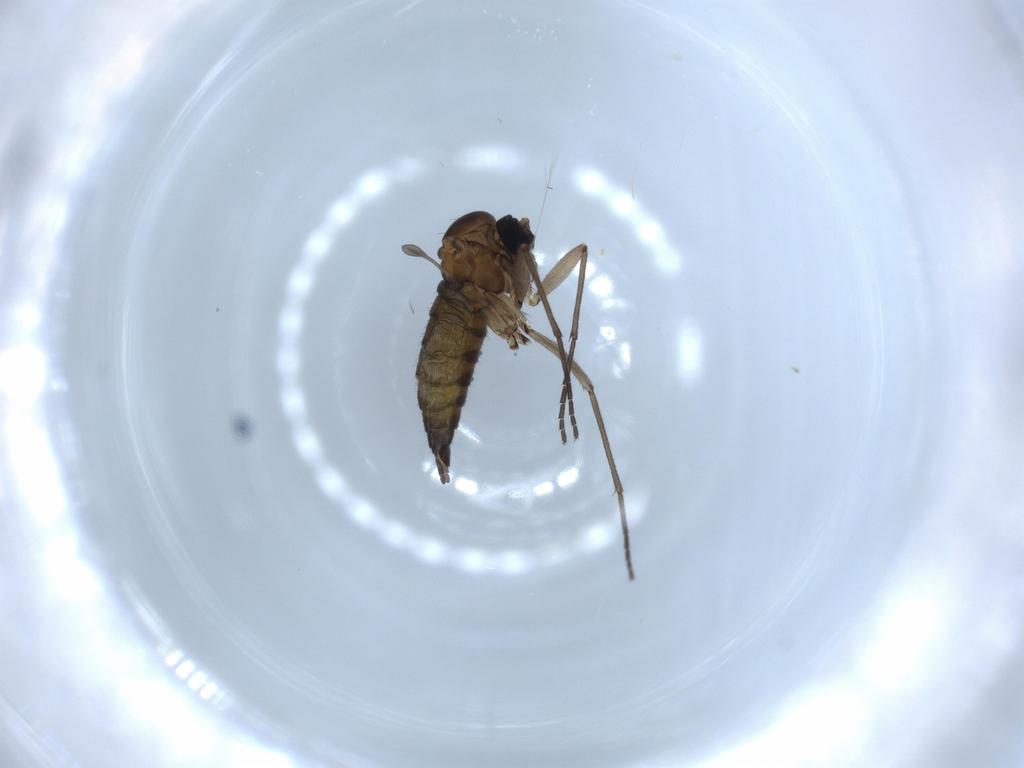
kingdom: Animalia
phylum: Arthropoda
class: Insecta
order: Diptera
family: Sciaridae
